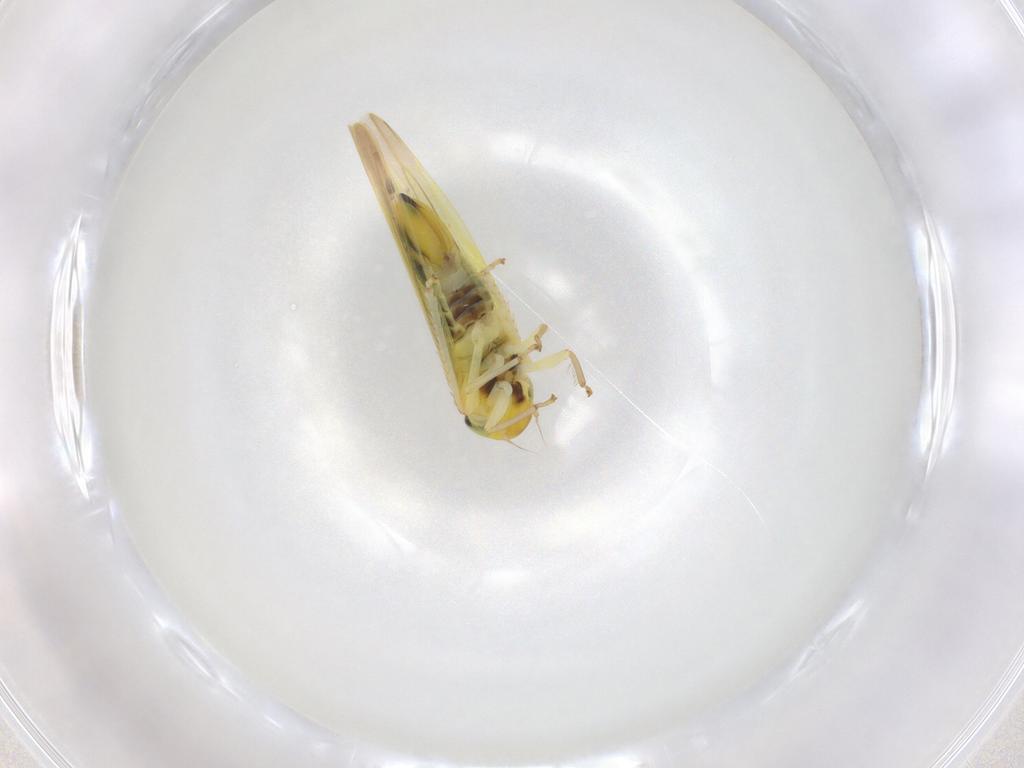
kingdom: Animalia
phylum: Arthropoda
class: Insecta
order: Hemiptera
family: Cicadellidae
